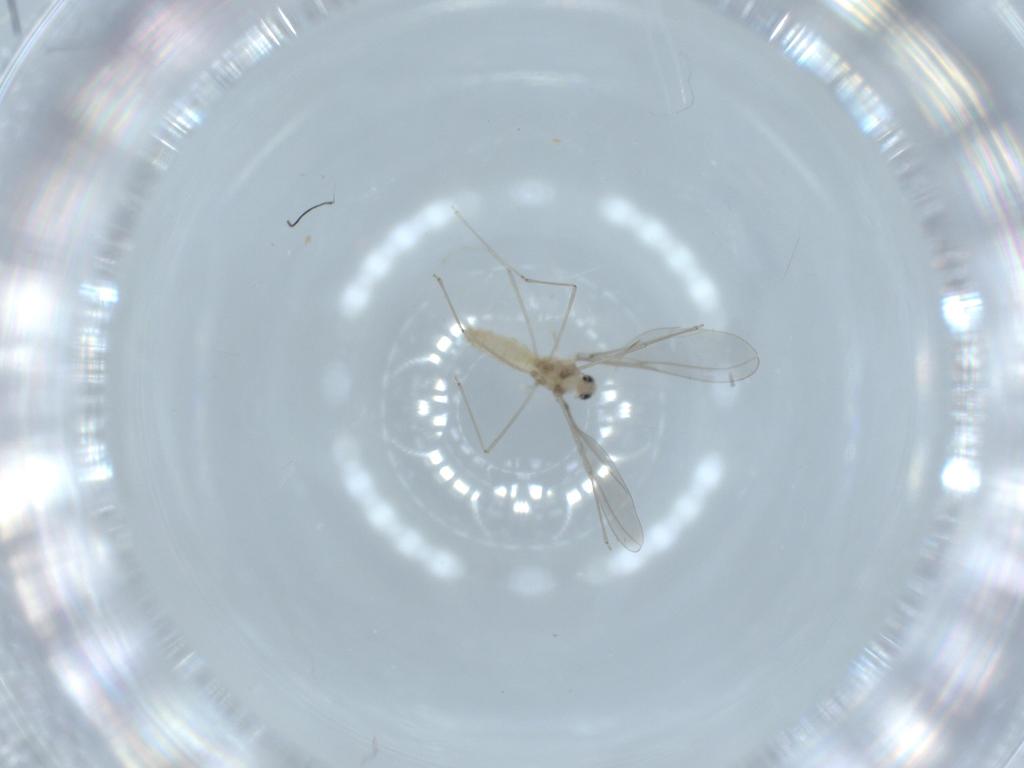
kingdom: Animalia
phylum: Arthropoda
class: Insecta
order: Diptera
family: Cecidomyiidae
